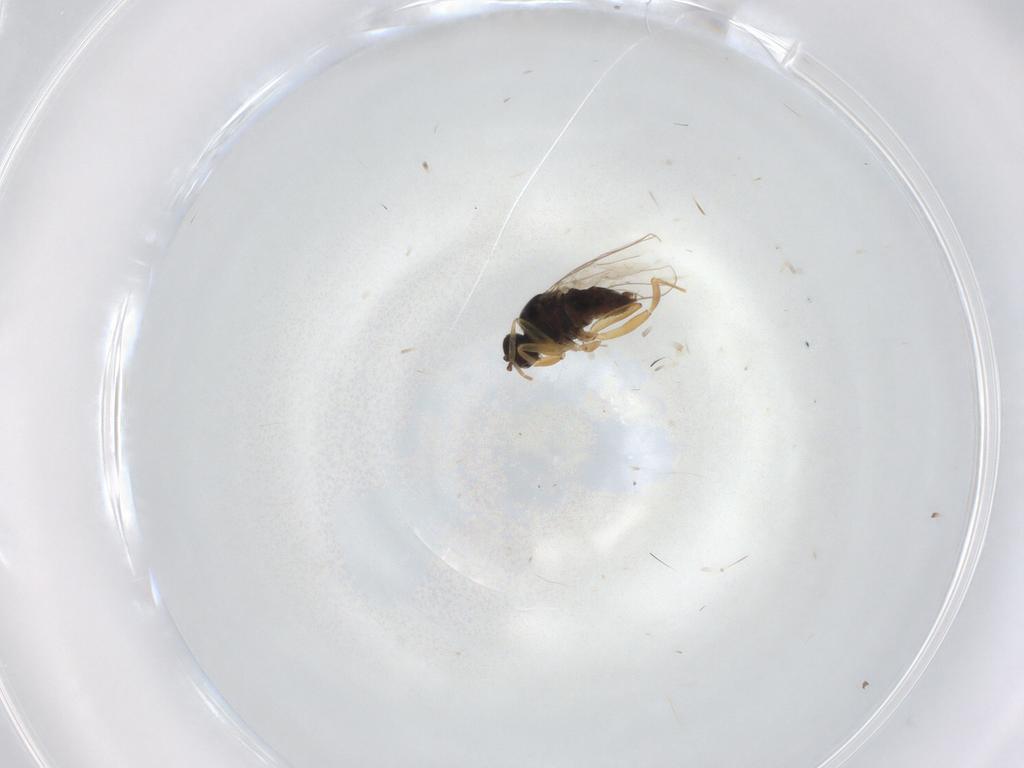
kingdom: Animalia
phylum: Arthropoda
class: Insecta
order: Diptera
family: Hybotidae
